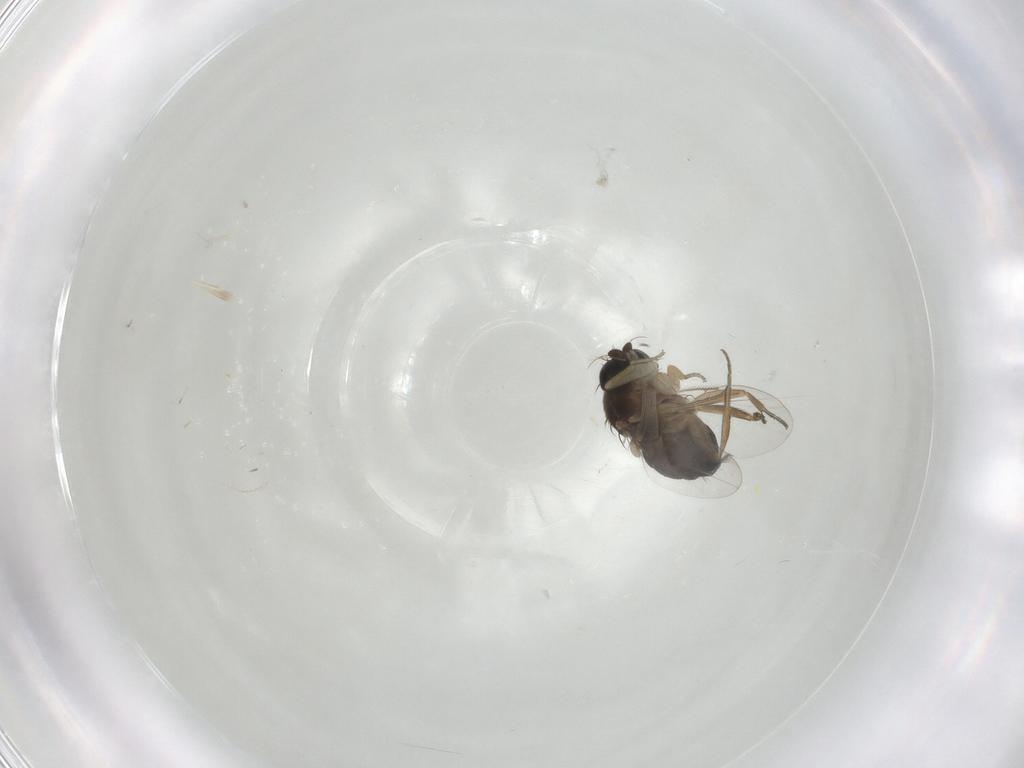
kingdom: Animalia
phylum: Arthropoda
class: Insecta
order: Diptera
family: Phoridae
